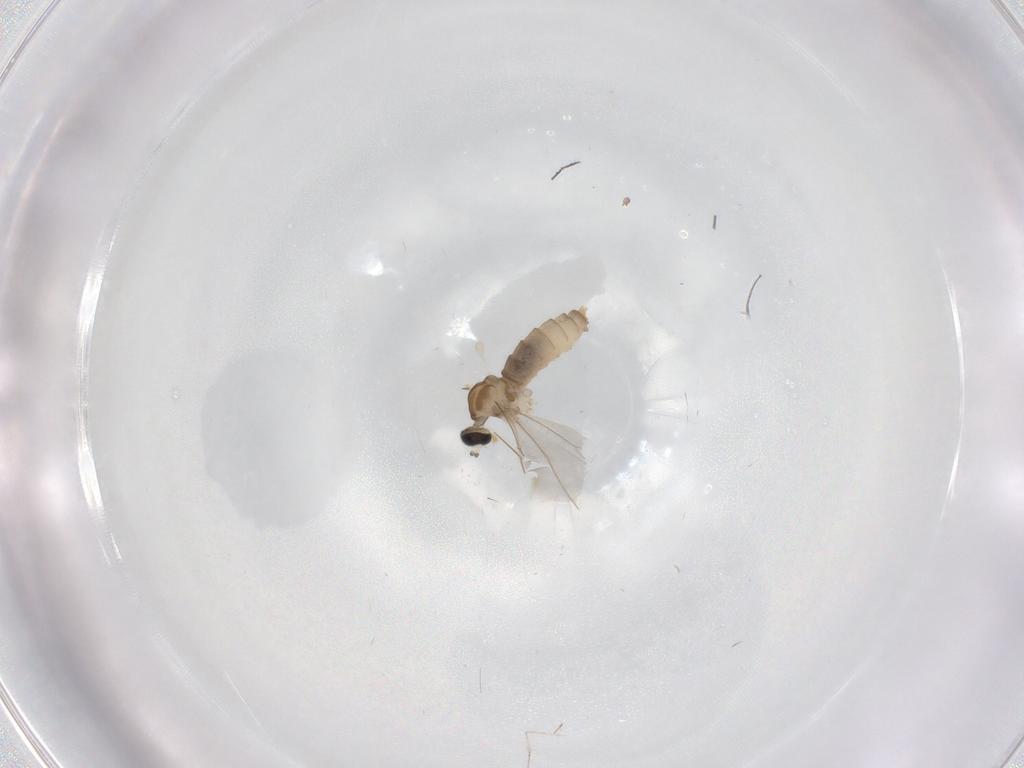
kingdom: Animalia
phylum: Arthropoda
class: Insecta
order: Diptera
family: Cecidomyiidae
